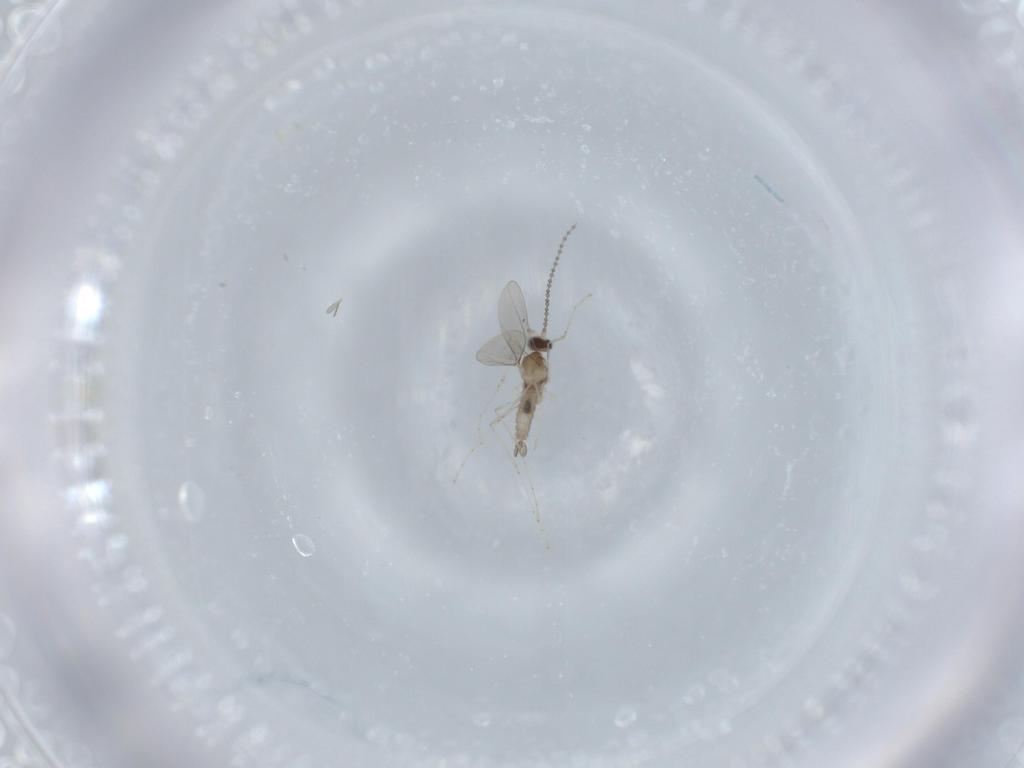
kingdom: Animalia
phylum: Arthropoda
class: Insecta
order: Diptera
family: Cecidomyiidae
